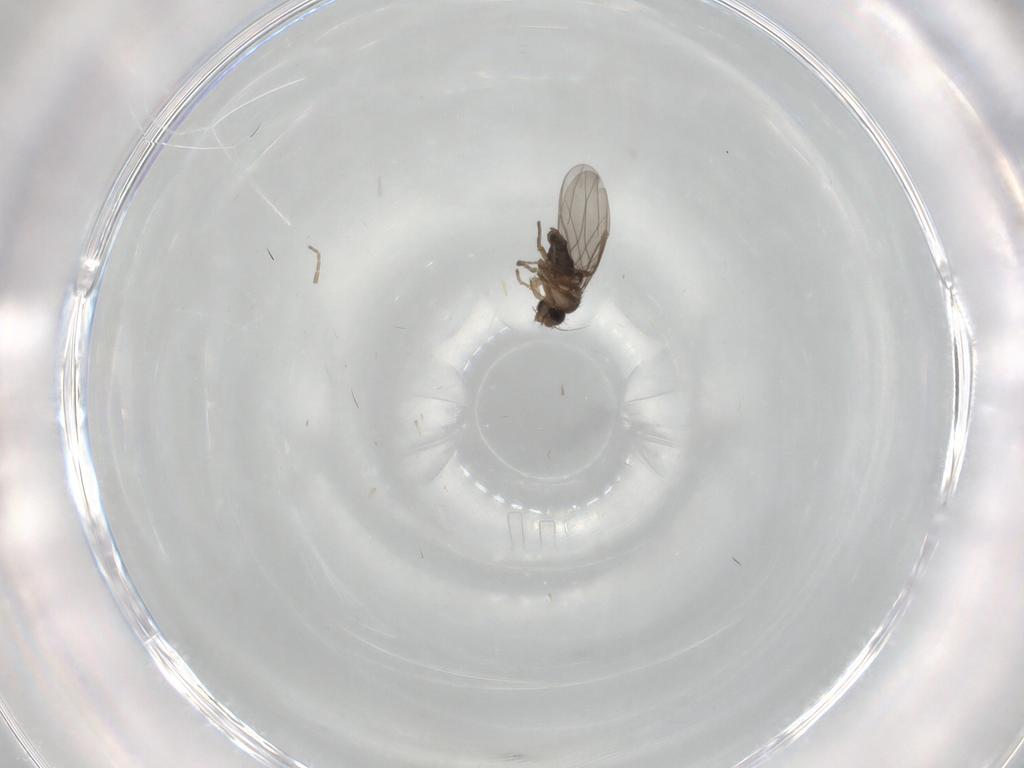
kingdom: Animalia
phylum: Arthropoda
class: Insecta
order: Diptera
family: Phoridae
